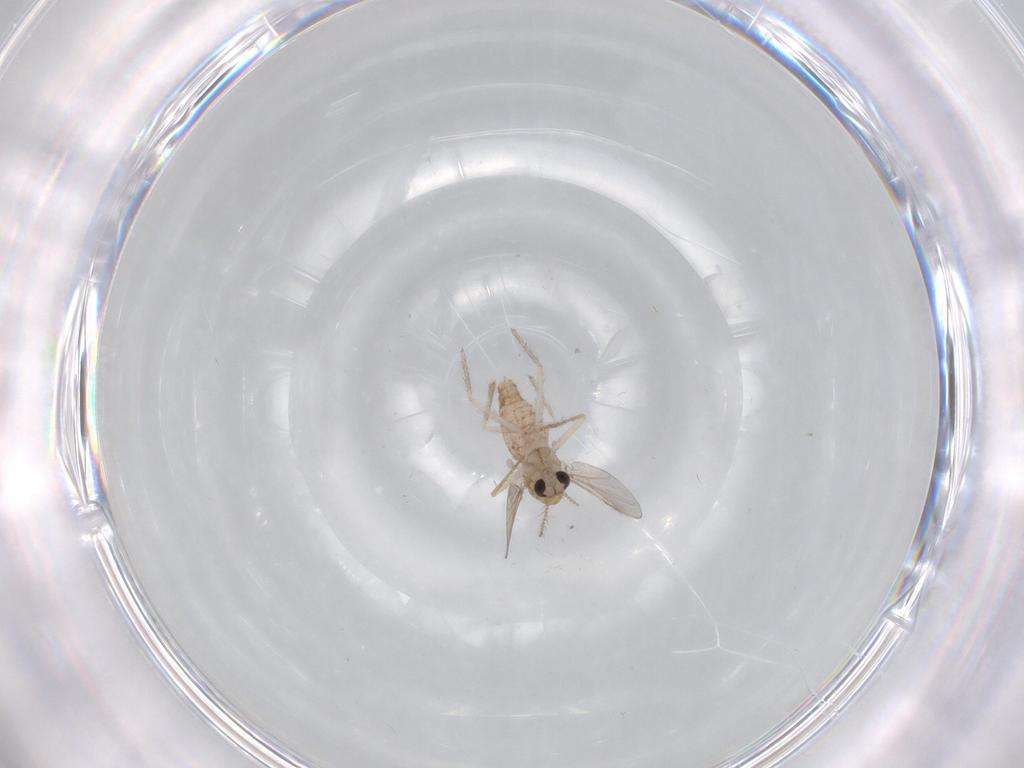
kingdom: Animalia
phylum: Arthropoda
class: Insecta
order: Diptera
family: Chironomidae
